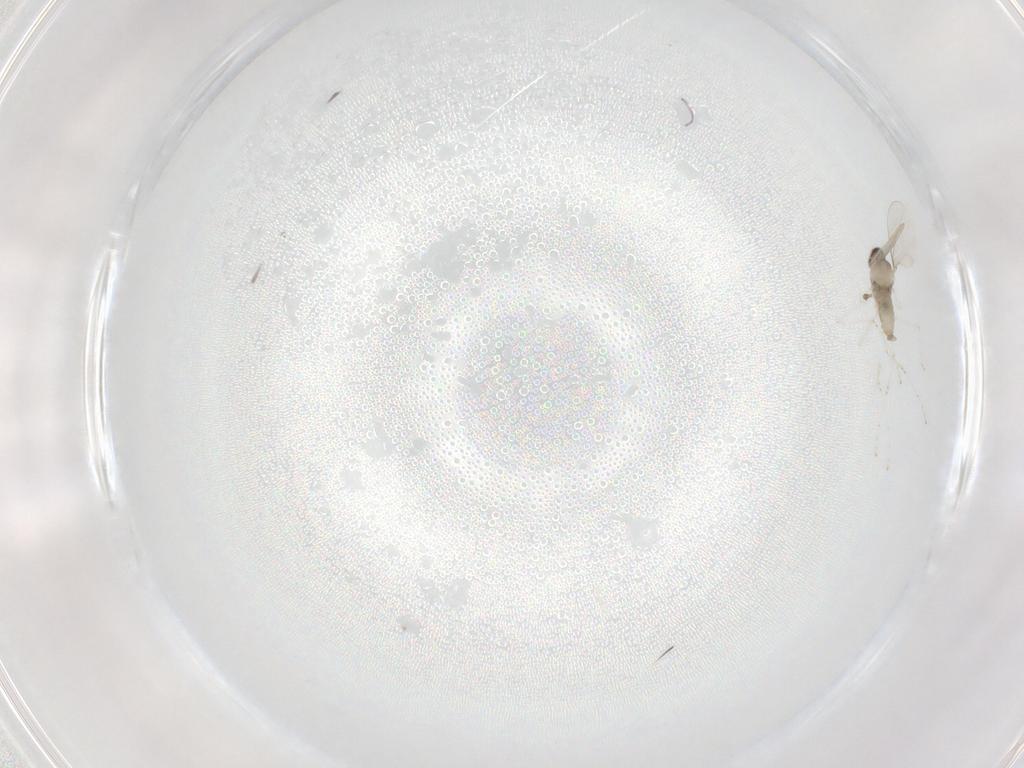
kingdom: Animalia
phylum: Arthropoda
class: Insecta
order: Diptera
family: Cecidomyiidae
